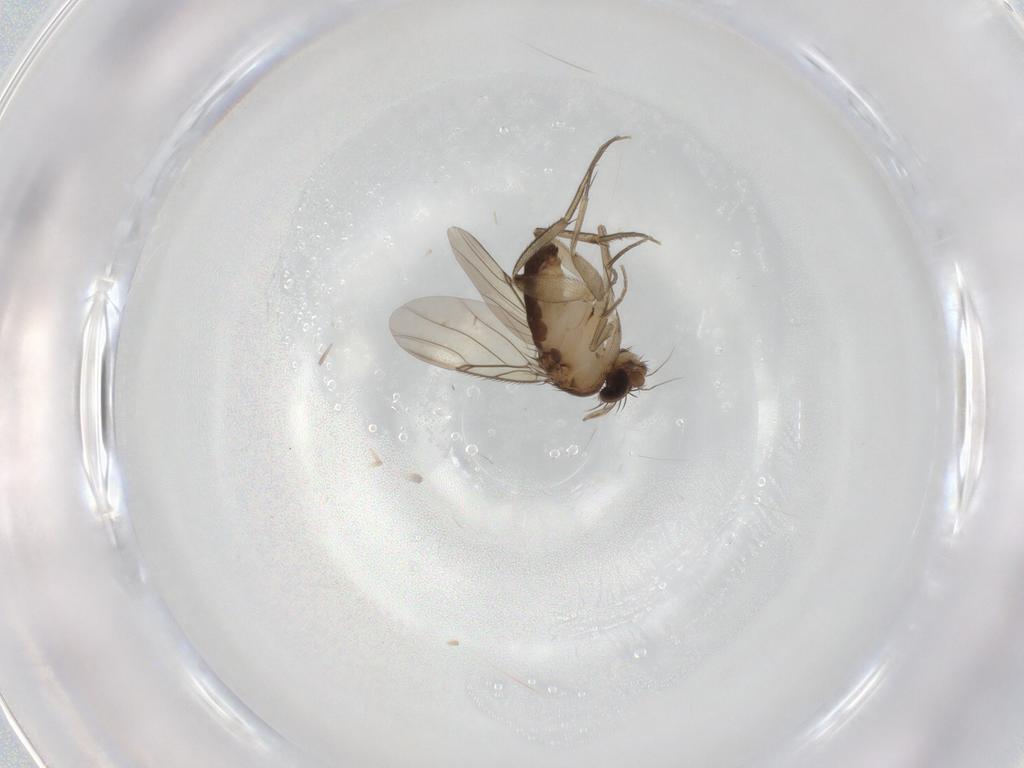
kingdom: Animalia
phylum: Arthropoda
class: Insecta
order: Diptera
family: Phoridae
